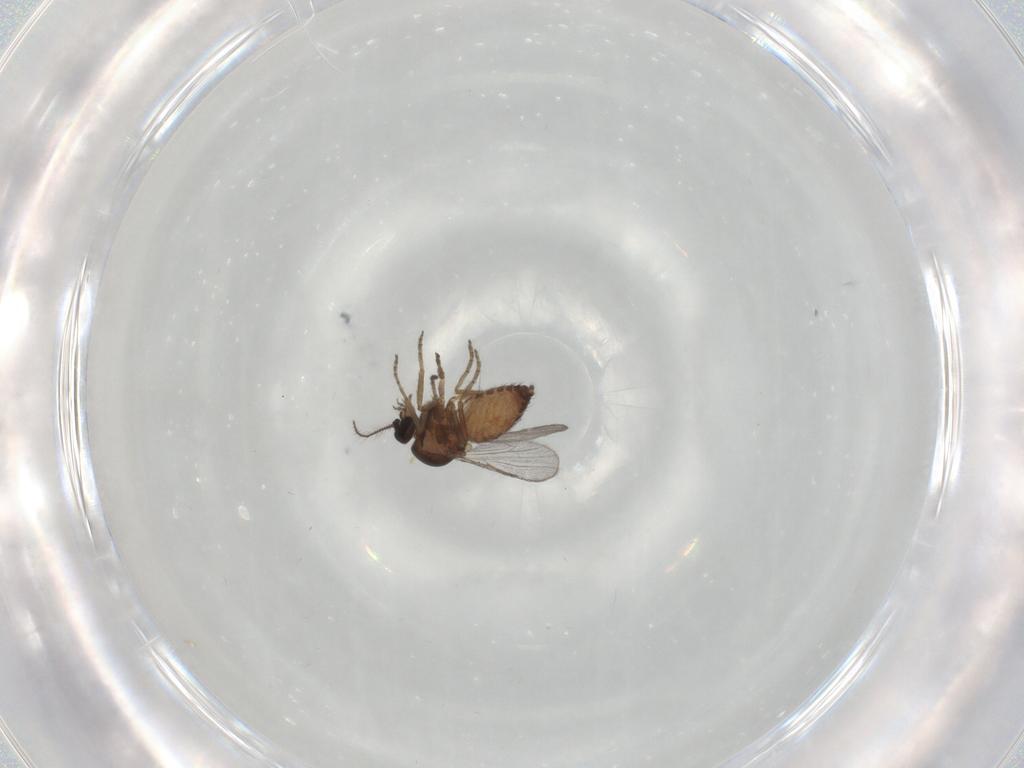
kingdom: Animalia
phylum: Arthropoda
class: Insecta
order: Diptera
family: Ceratopogonidae
